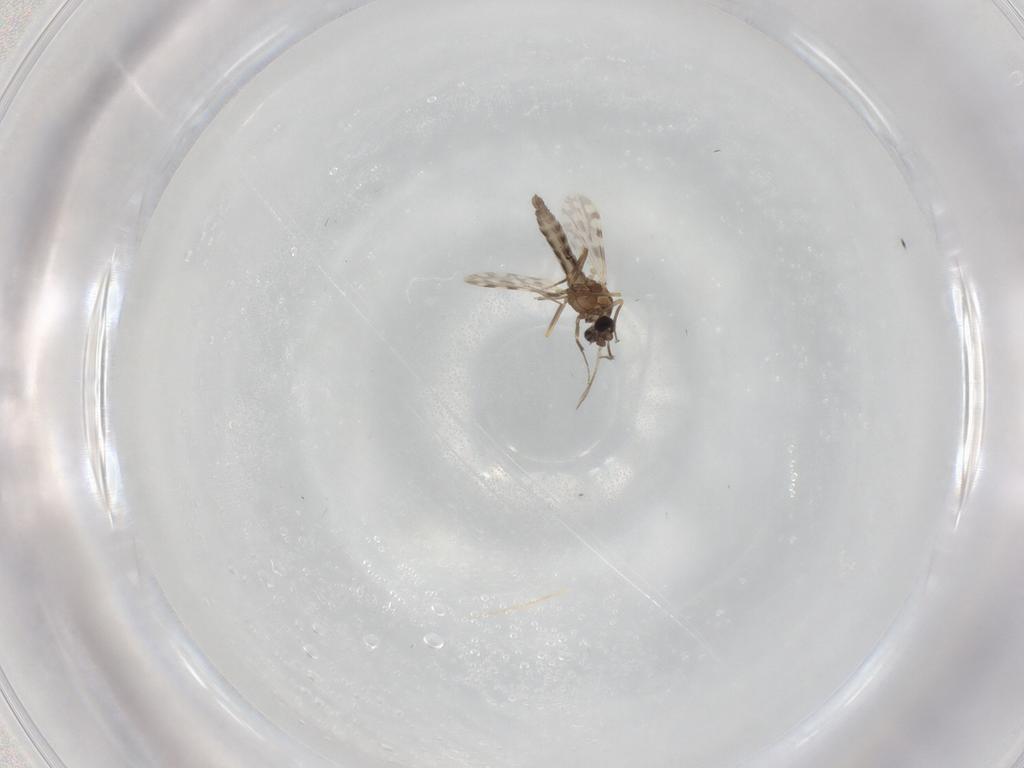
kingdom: Animalia
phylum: Arthropoda
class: Insecta
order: Diptera
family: Ceratopogonidae
